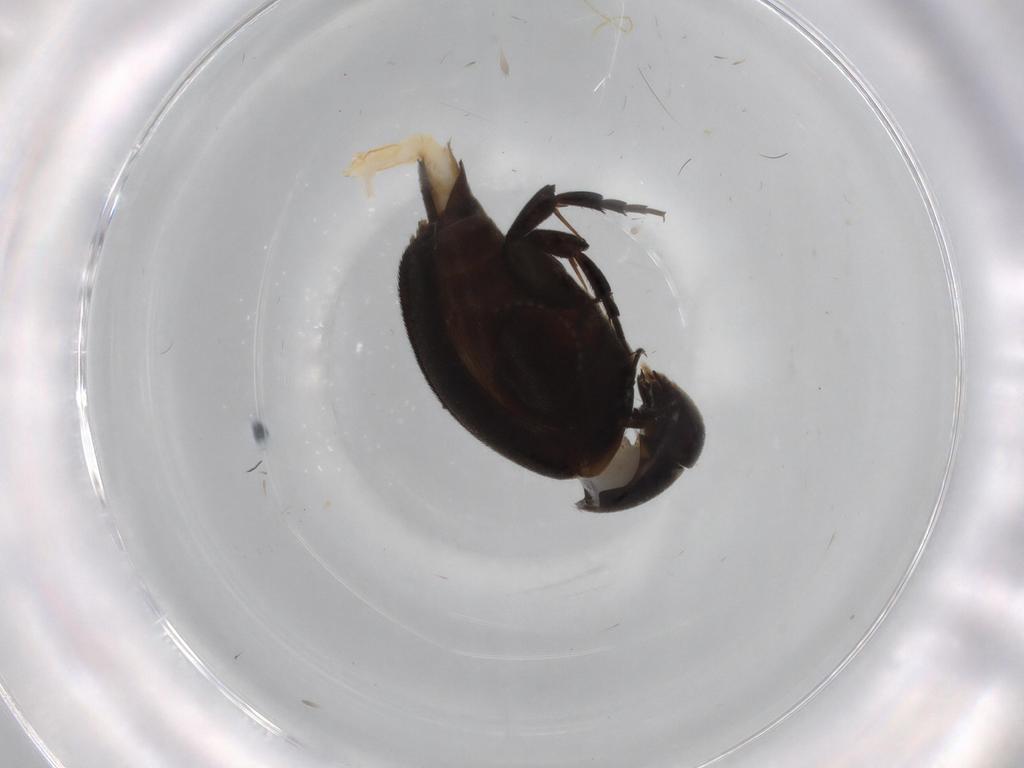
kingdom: Animalia
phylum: Arthropoda
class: Insecta
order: Coleoptera
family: Mordellidae
